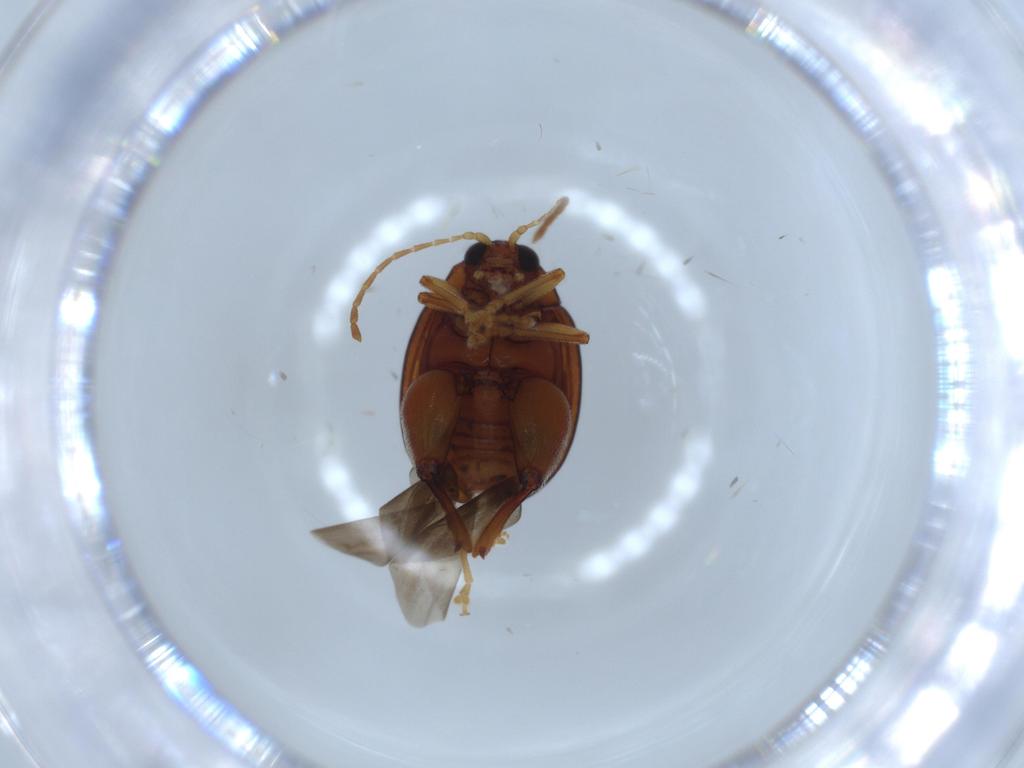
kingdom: Animalia
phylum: Arthropoda
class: Insecta
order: Coleoptera
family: Chrysomelidae
